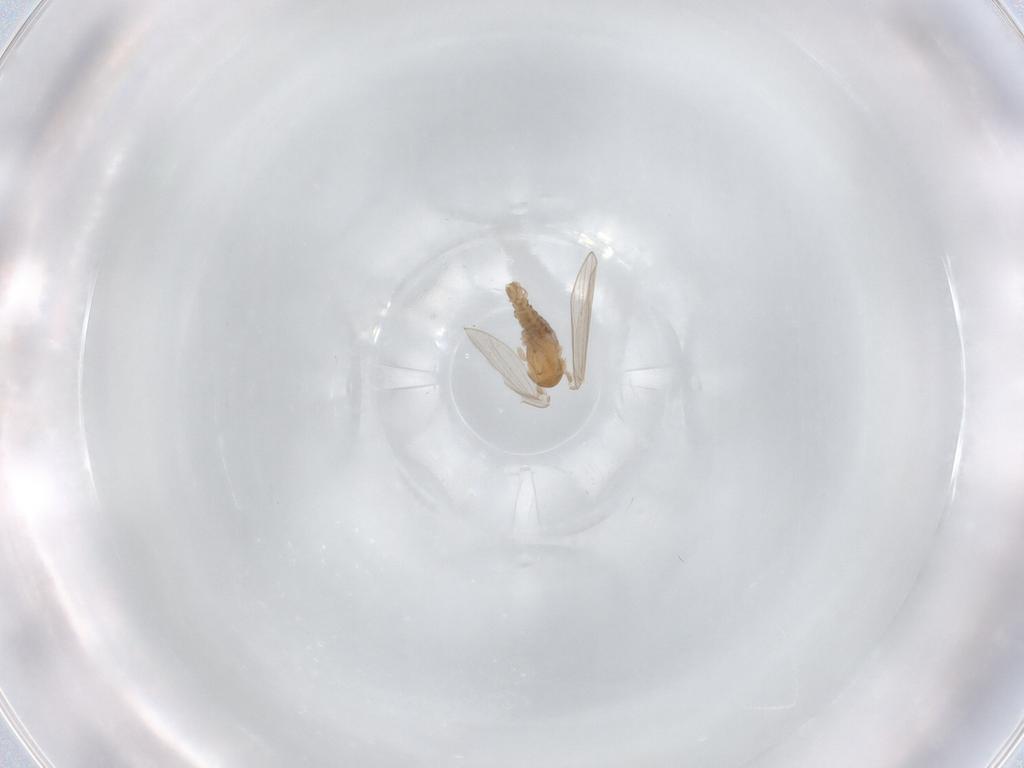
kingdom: Animalia
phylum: Arthropoda
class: Insecta
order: Diptera
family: Psychodidae
